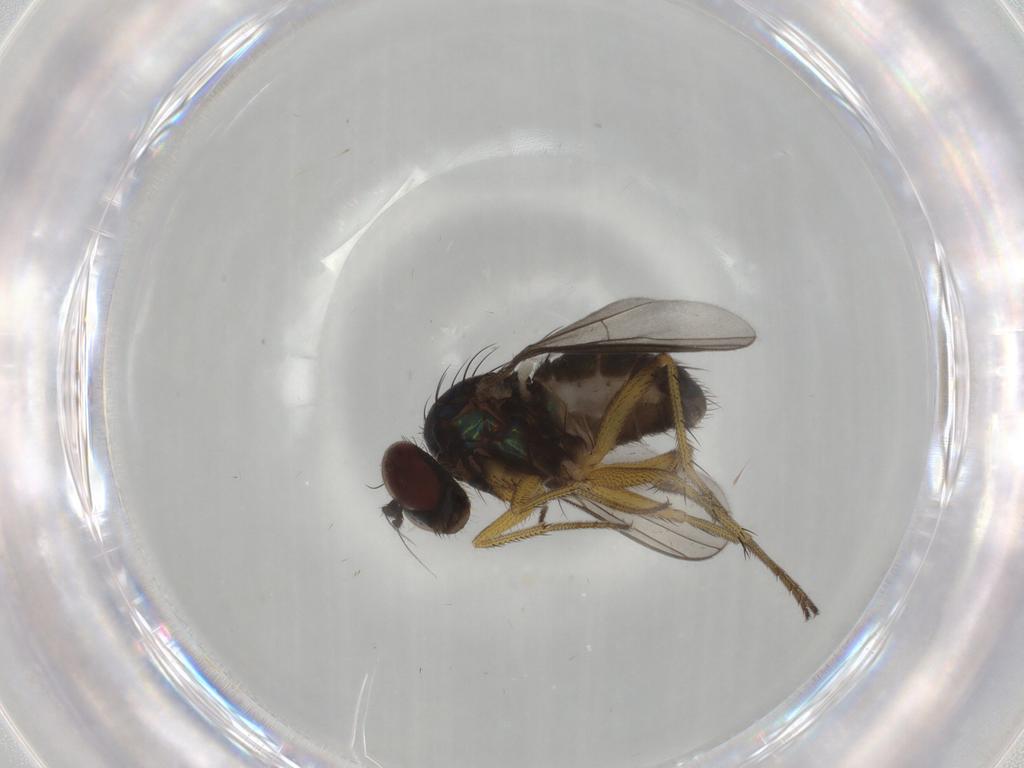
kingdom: Animalia
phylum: Arthropoda
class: Insecta
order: Diptera
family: Dolichopodidae
